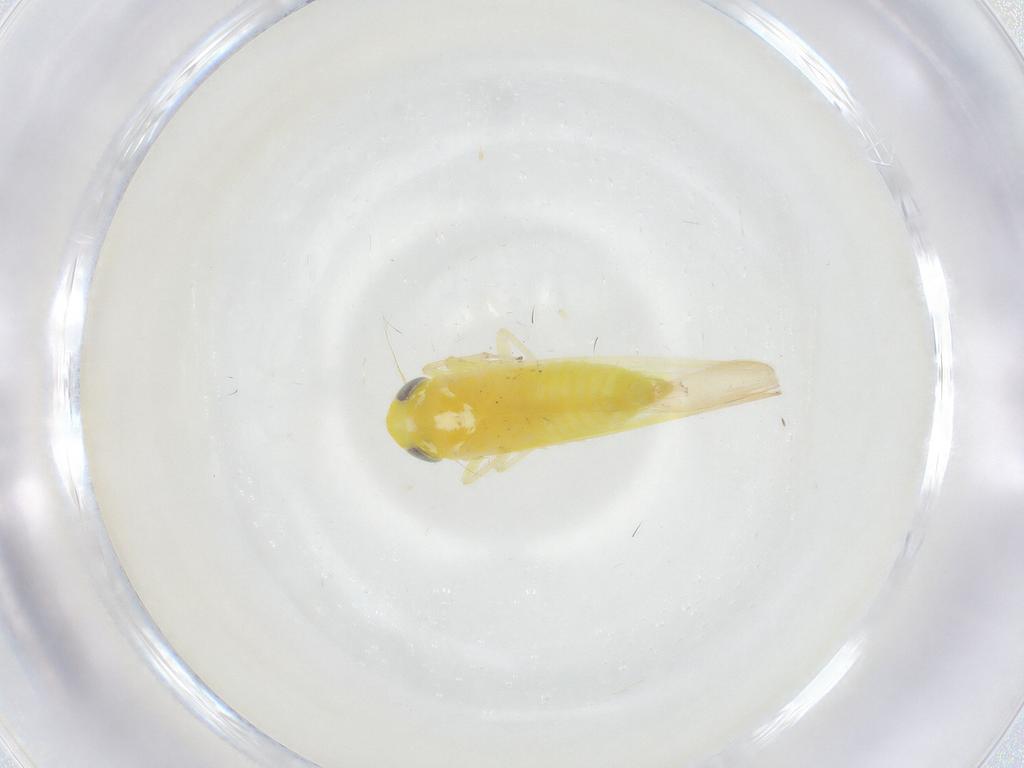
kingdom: Animalia
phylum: Arthropoda
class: Insecta
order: Hemiptera
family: Cicadellidae
